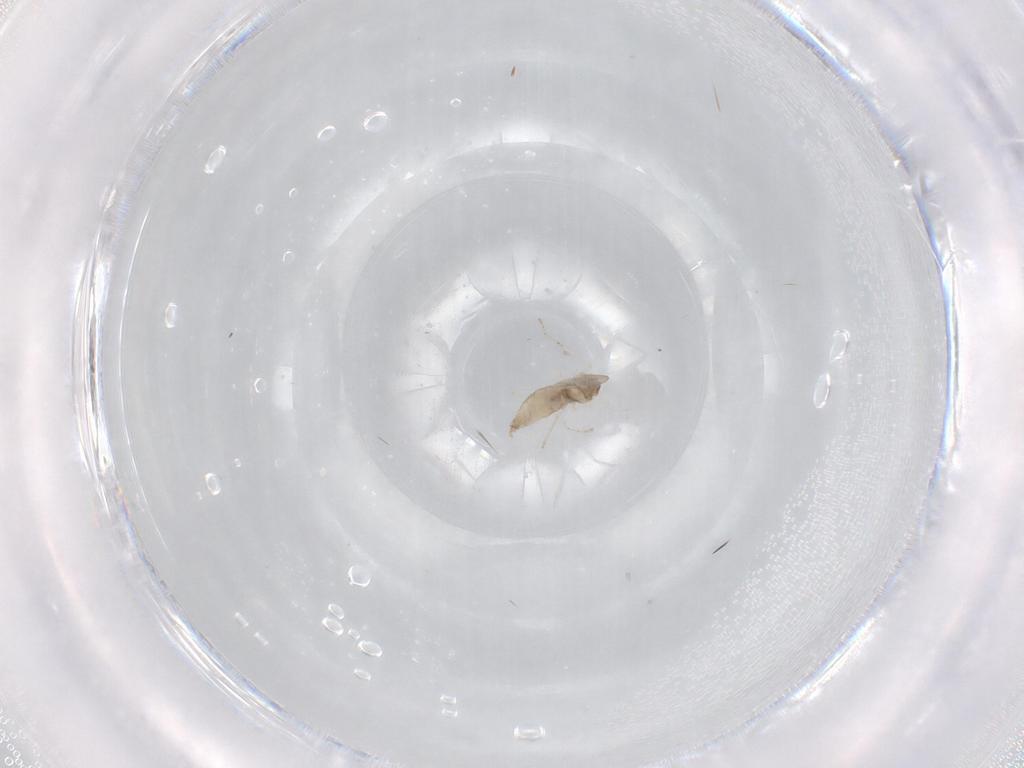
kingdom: Animalia
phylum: Arthropoda
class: Insecta
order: Diptera
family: Cecidomyiidae
